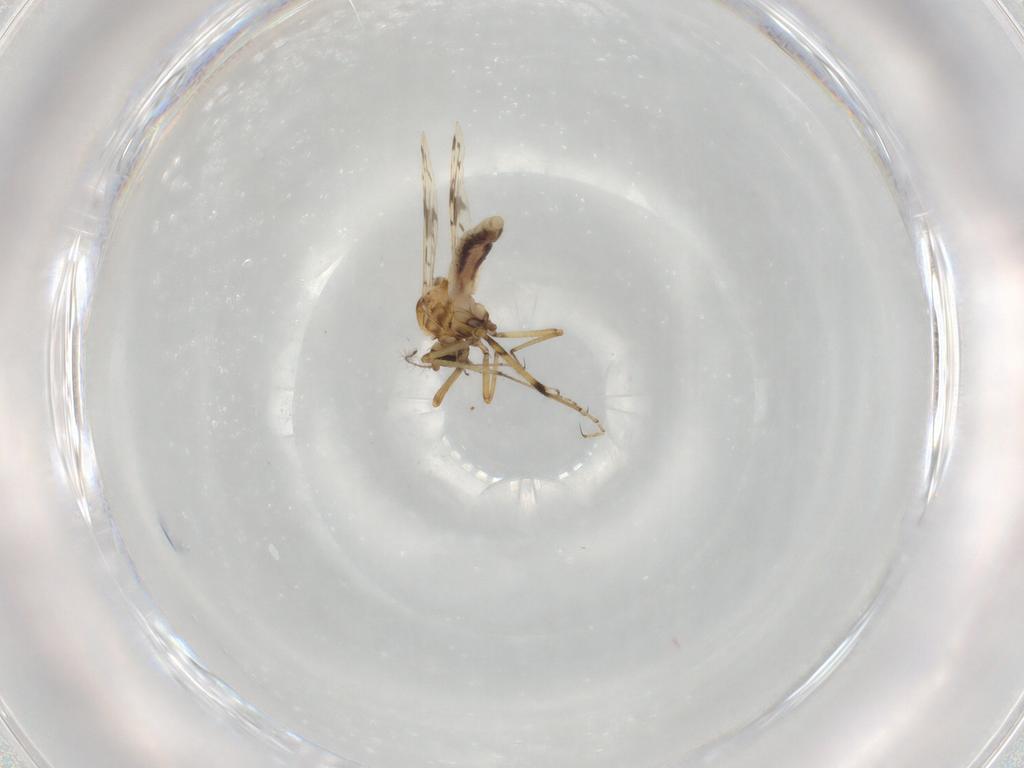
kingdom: Animalia
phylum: Arthropoda
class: Insecta
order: Diptera
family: Ceratopogonidae
